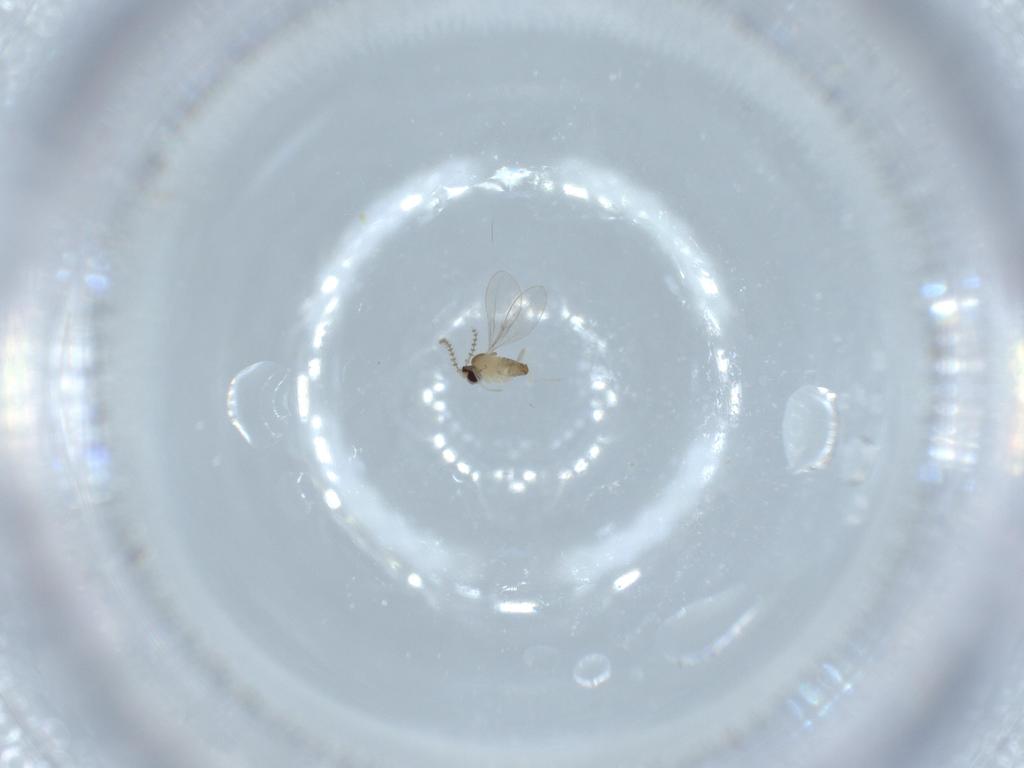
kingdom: Animalia
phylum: Arthropoda
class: Insecta
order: Diptera
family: Cecidomyiidae
